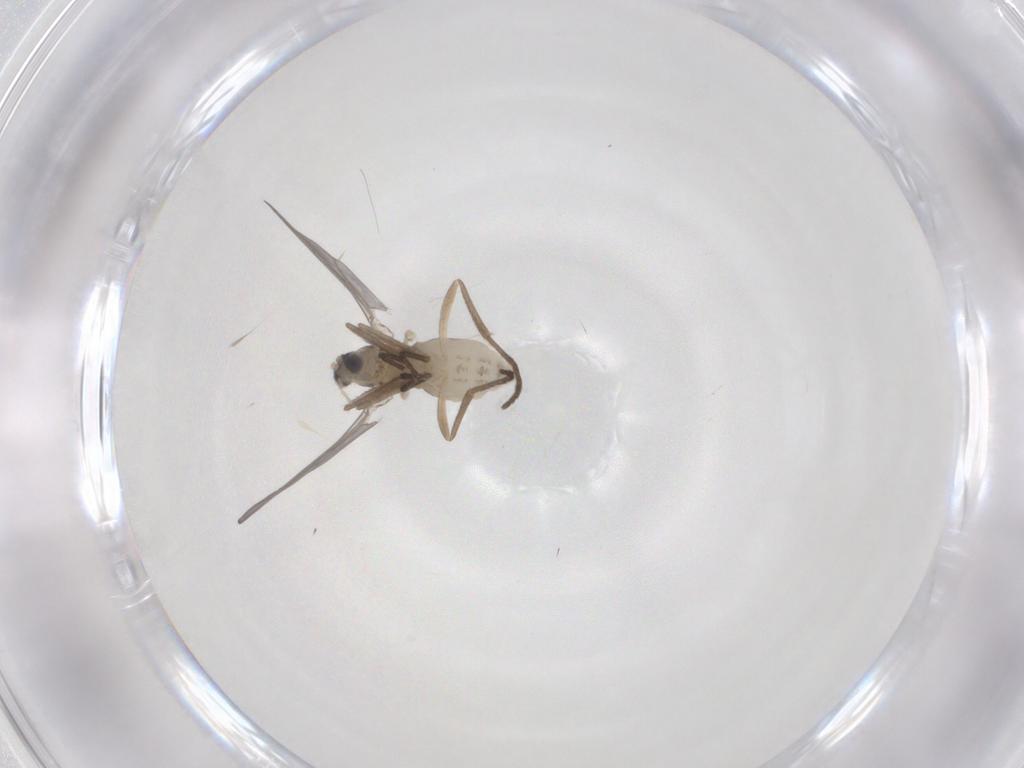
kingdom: Animalia
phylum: Arthropoda
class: Insecta
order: Diptera
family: Cecidomyiidae
